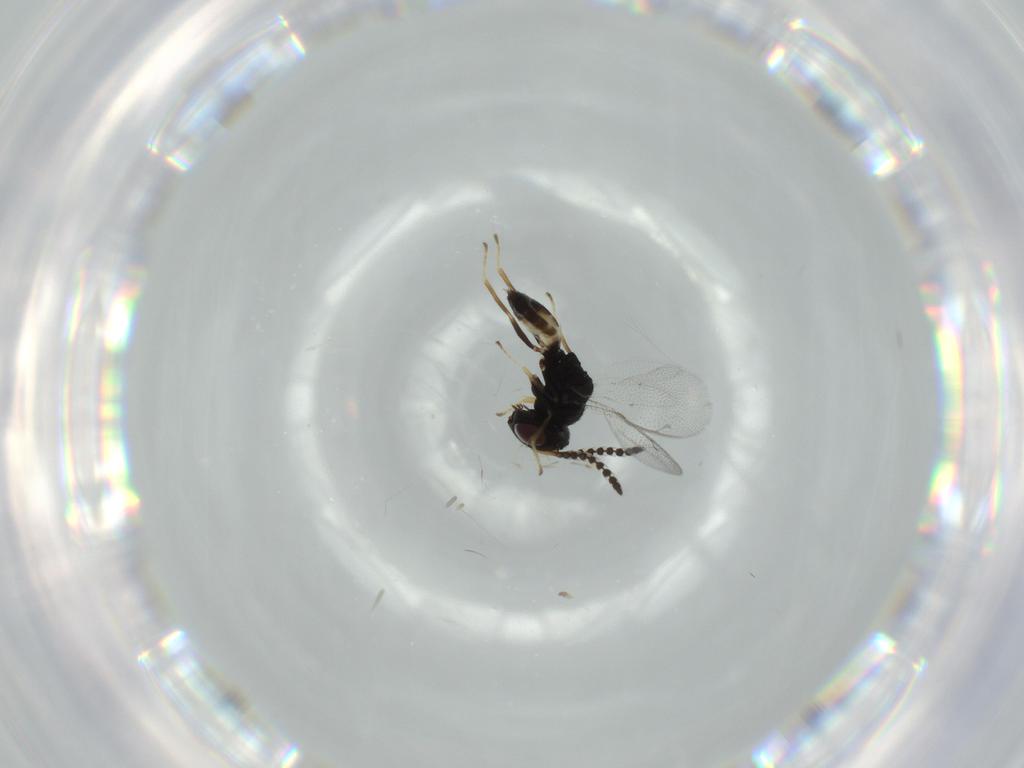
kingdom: Animalia
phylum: Arthropoda
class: Insecta
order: Hymenoptera
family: Pteromalidae
